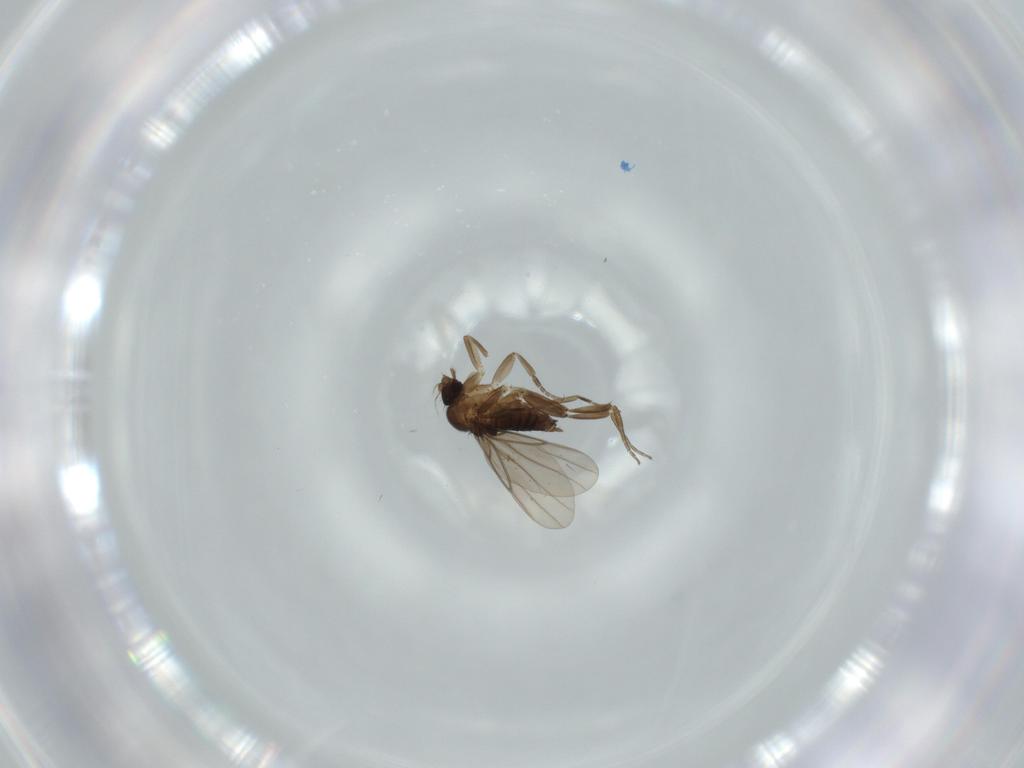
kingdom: Animalia
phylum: Arthropoda
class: Insecta
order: Diptera
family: Phoridae
